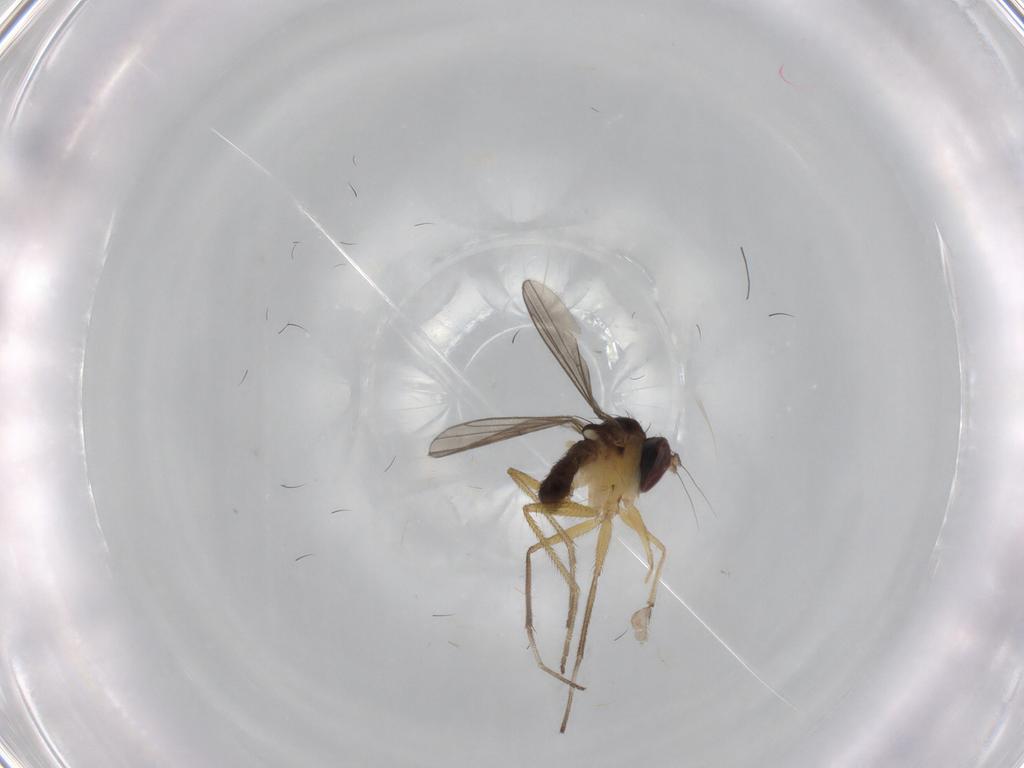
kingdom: Animalia
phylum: Arthropoda
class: Insecta
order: Diptera
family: Dolichopodidae
